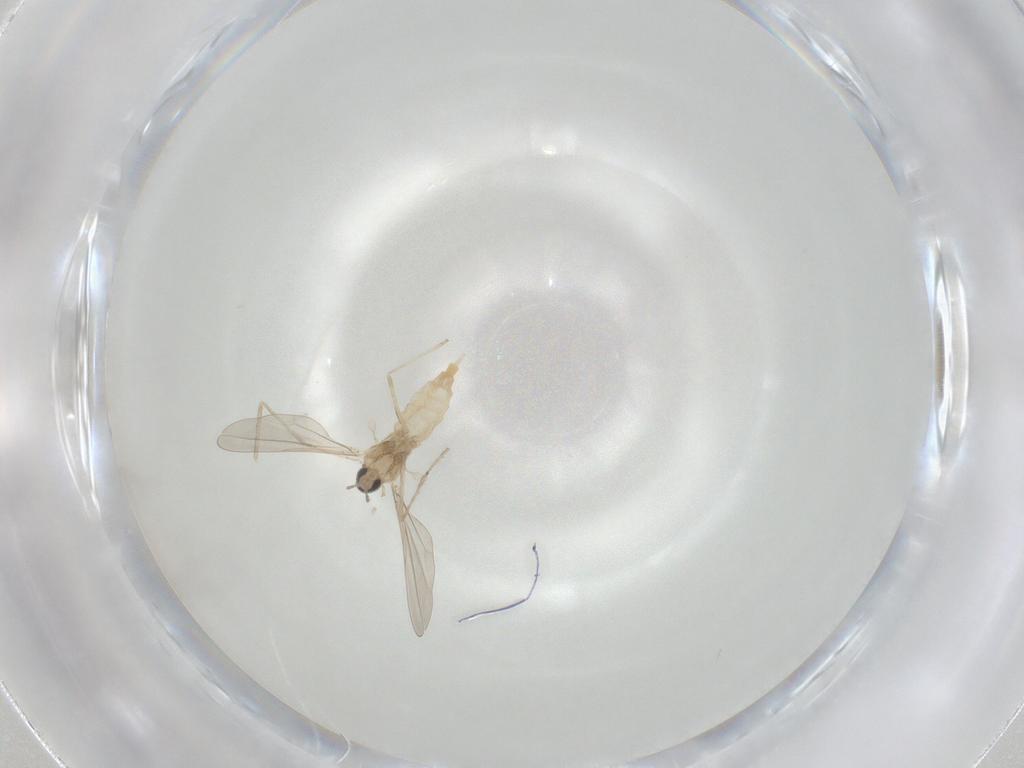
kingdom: Animalia
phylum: Arthropoda
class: Insecta
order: Diptera
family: Cecidomyiidae
